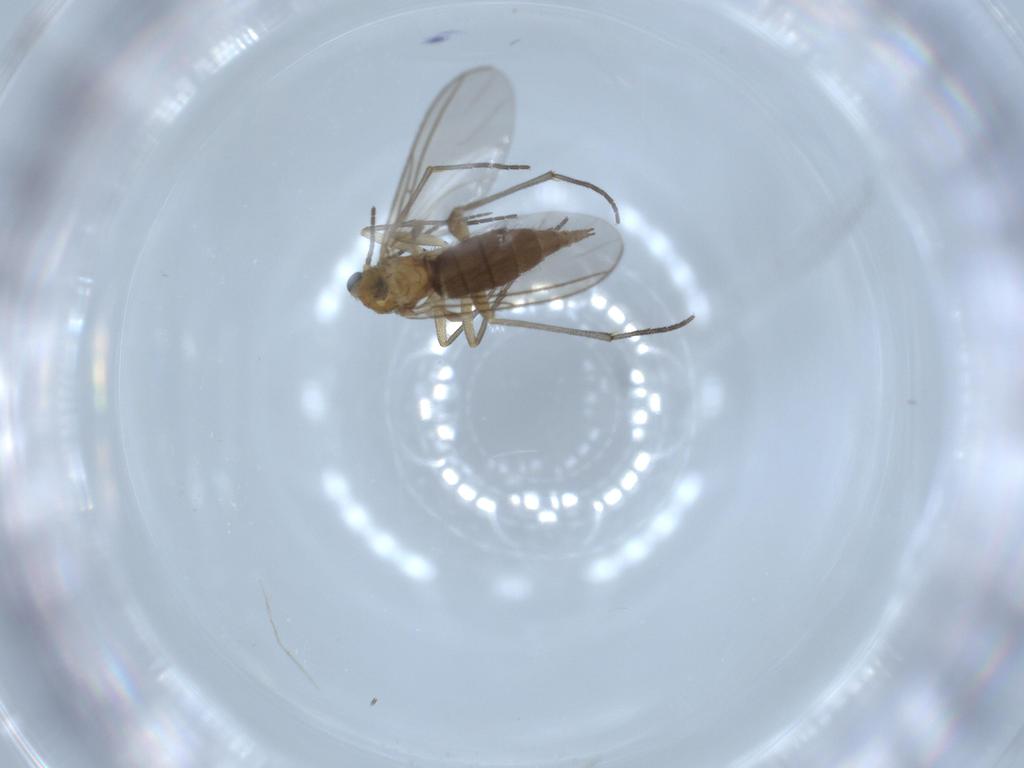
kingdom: Animalia
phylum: Arthropoda
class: Insecta
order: Diptera
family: Sciaridae
